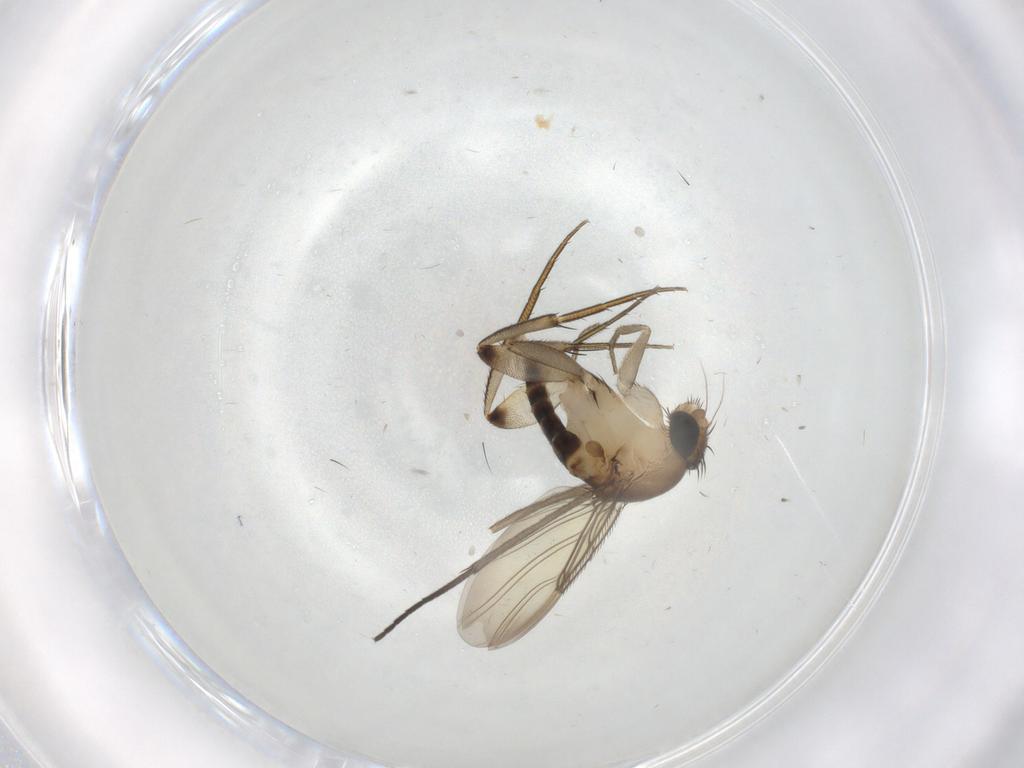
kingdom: Animalia
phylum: Arthropoda
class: Insecta
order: Diptera
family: Phoridae
